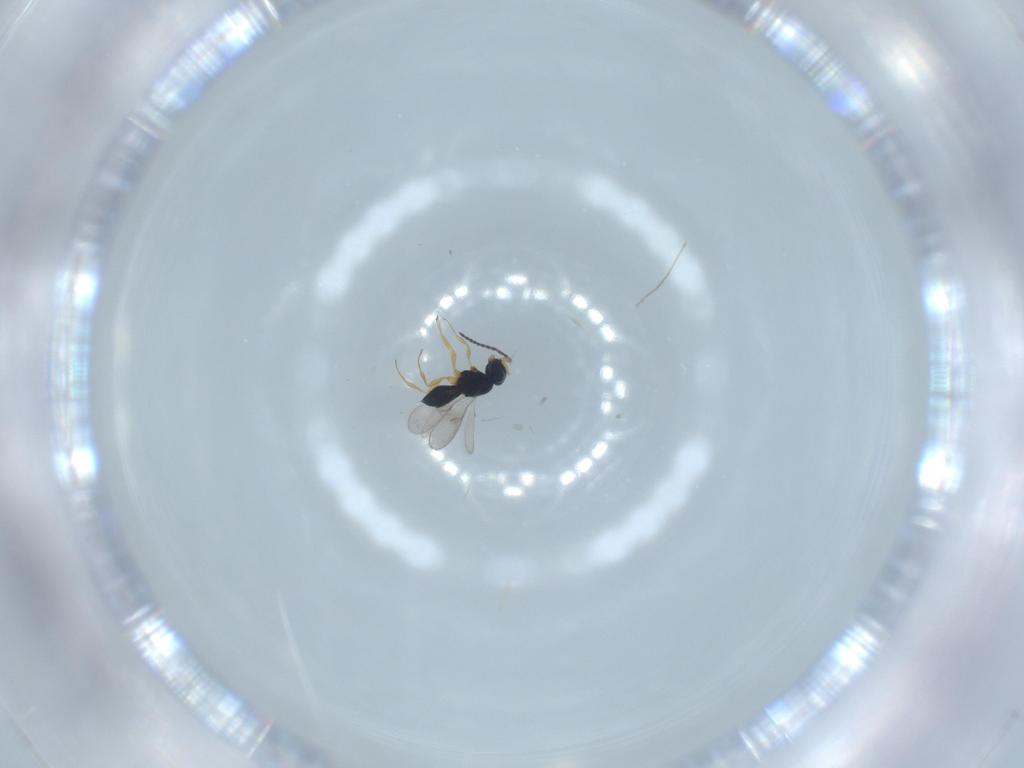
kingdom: Animalia
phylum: Arthropoda
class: Insecta
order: Hymenoptera
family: Scelionidae
